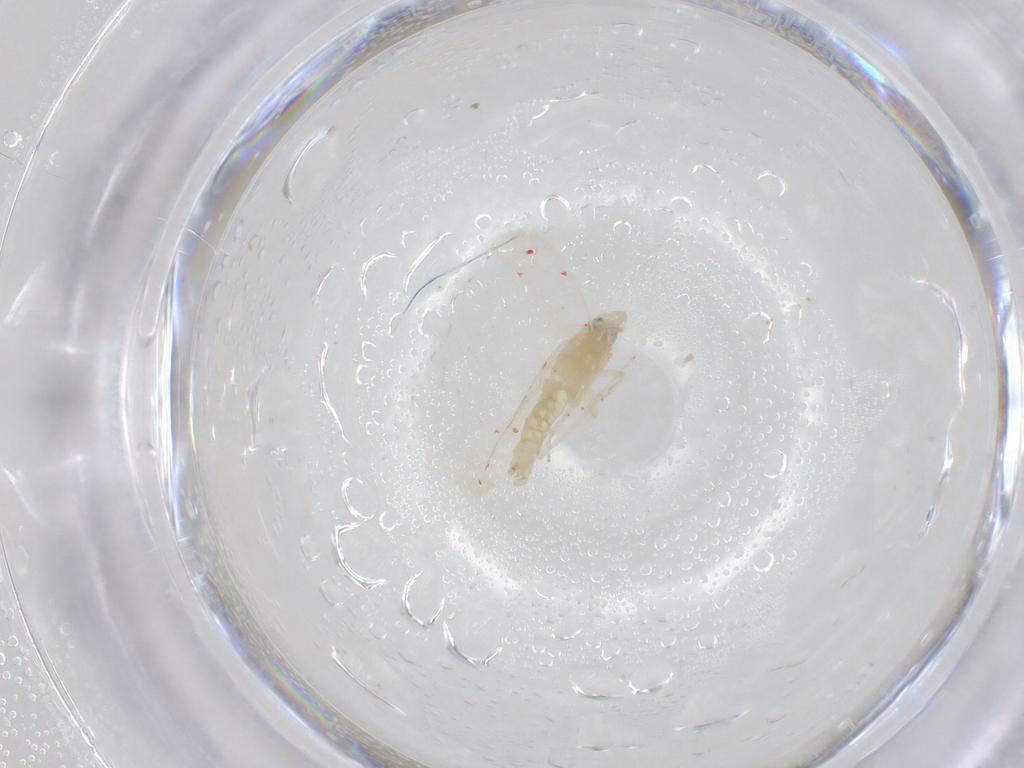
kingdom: Animalia
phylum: Arthropoda
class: Insecta
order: Hemiptera
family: Cicadellidae
